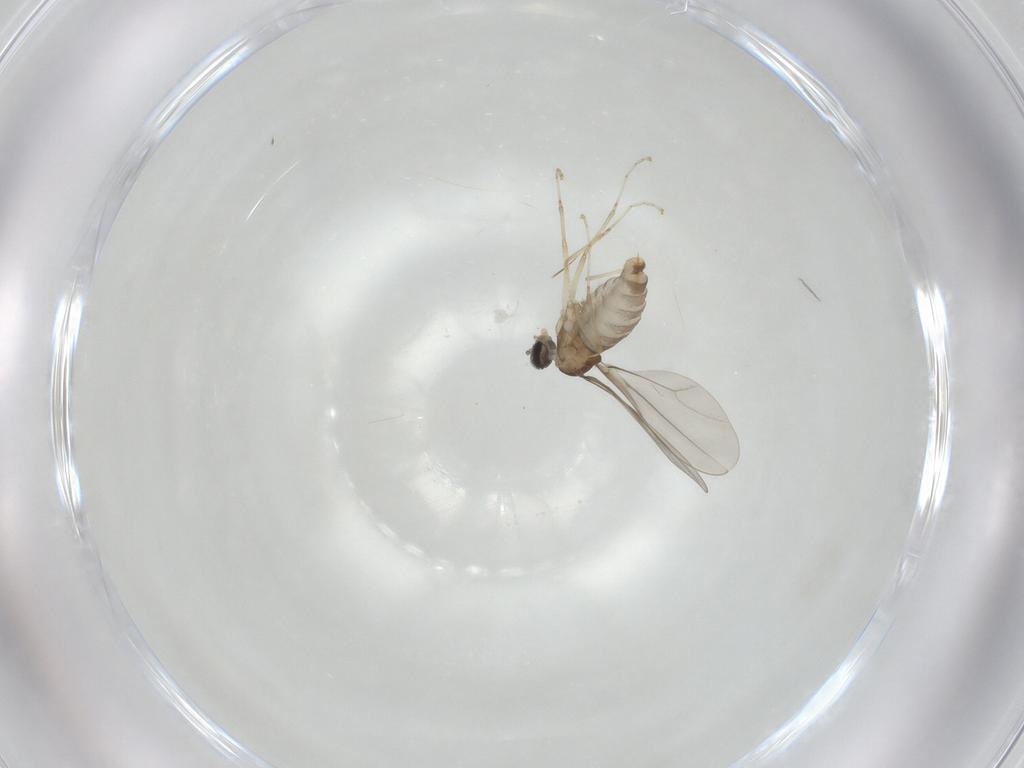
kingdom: Animalia
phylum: Arthropoda
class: Insecta
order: Diptera
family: Cecidomyiidae
